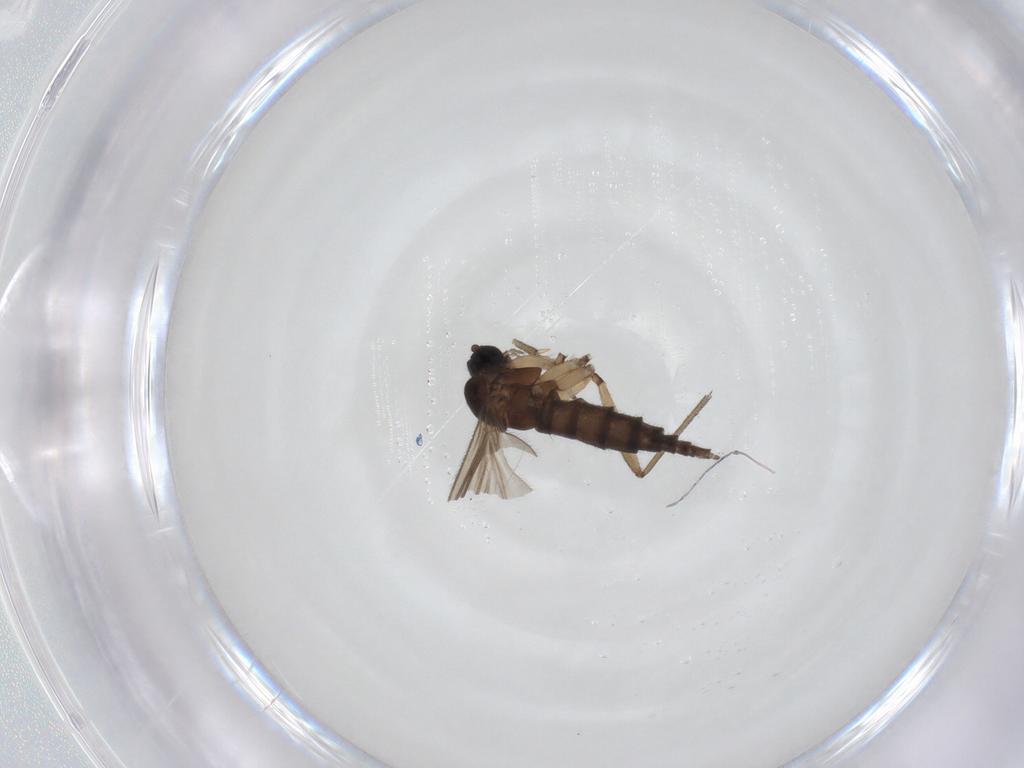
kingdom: Animalia
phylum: Arthropoda
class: Insecta
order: Diptera
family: Sciaridae
